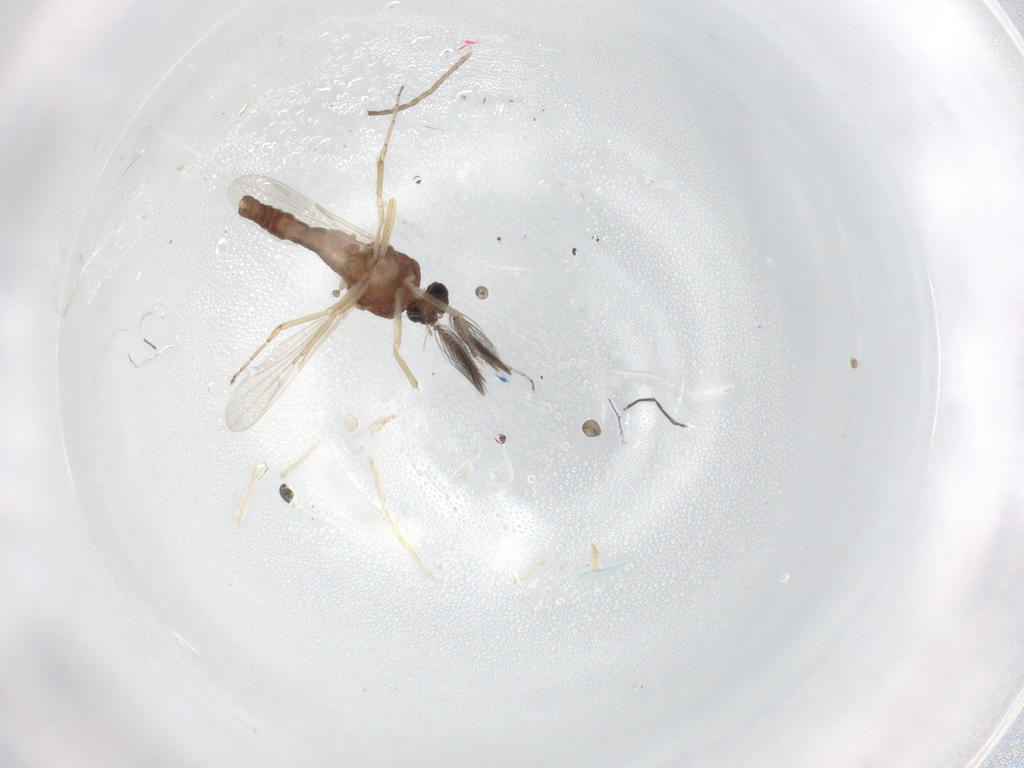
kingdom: Animalia
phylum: Arthropoda
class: Insecta
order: Diptera
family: Ceratopogonidae
